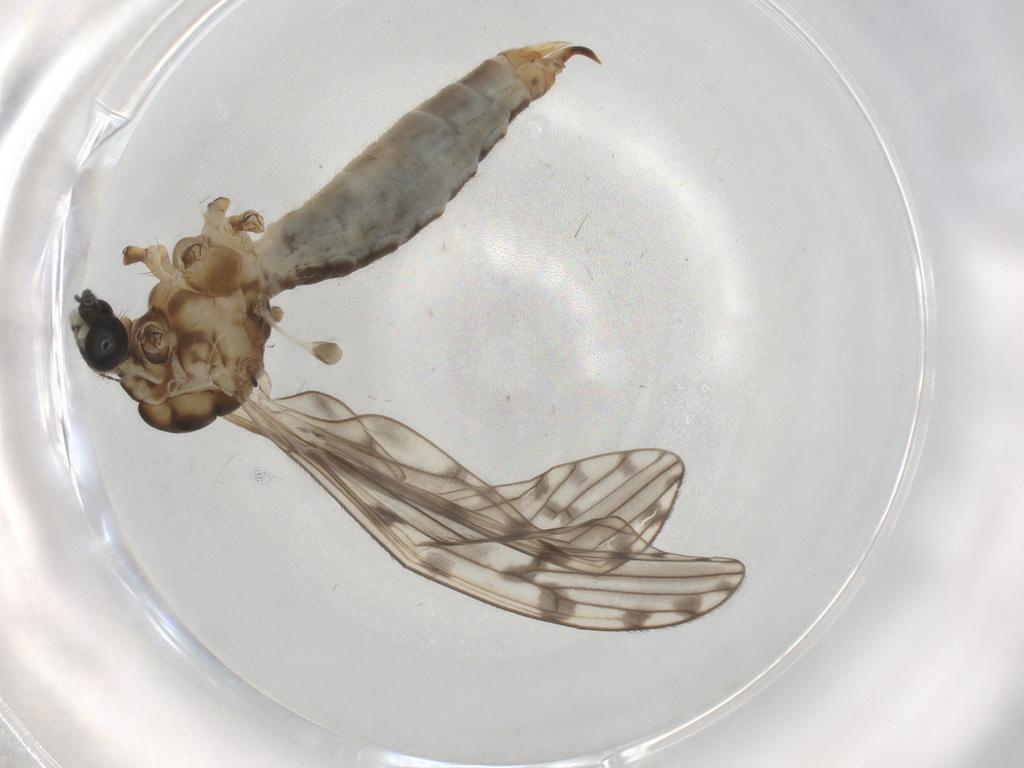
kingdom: Animalia
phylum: Arthropoda
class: Insecta
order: Diptera
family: Limoniidae
